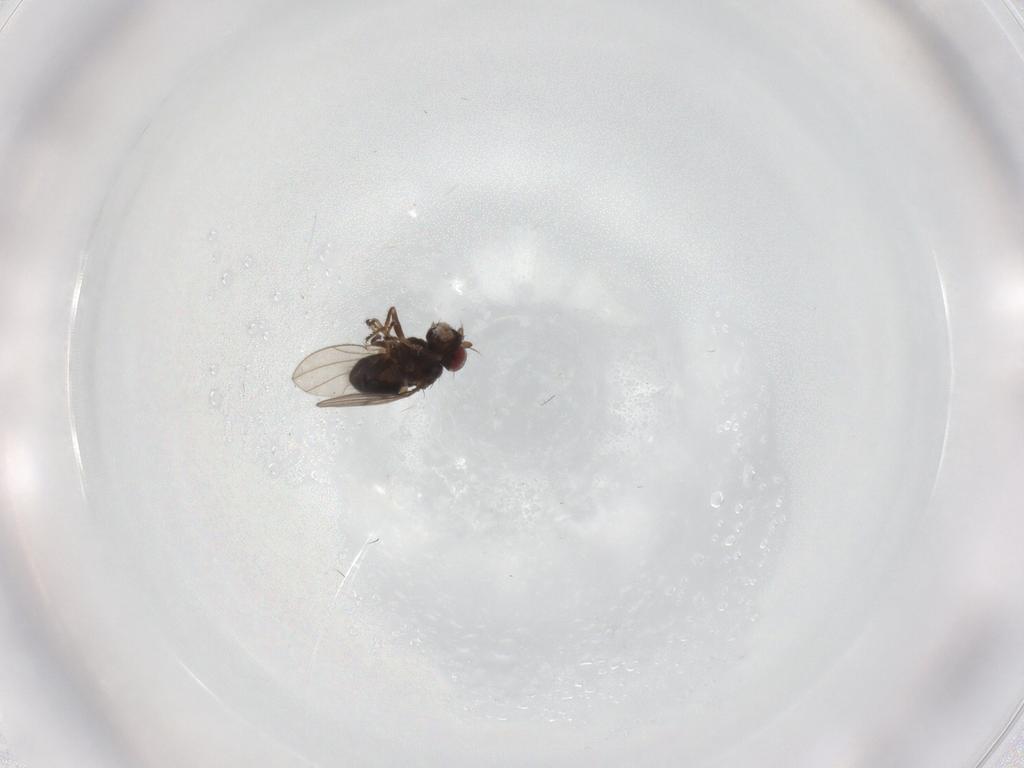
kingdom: Animalia
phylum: Arthropoda
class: Insecta
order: Diptera
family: Ephydridae
